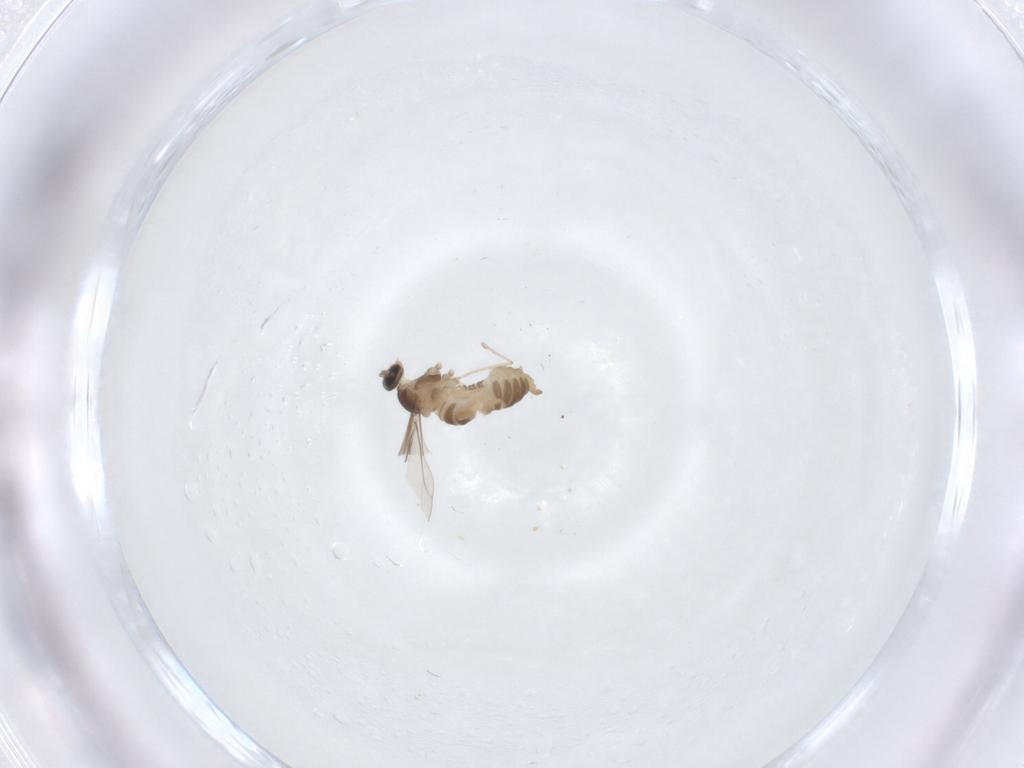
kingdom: Animalia
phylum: Arthropoda
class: Insecta
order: Diptera
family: Cecidomyiidae
